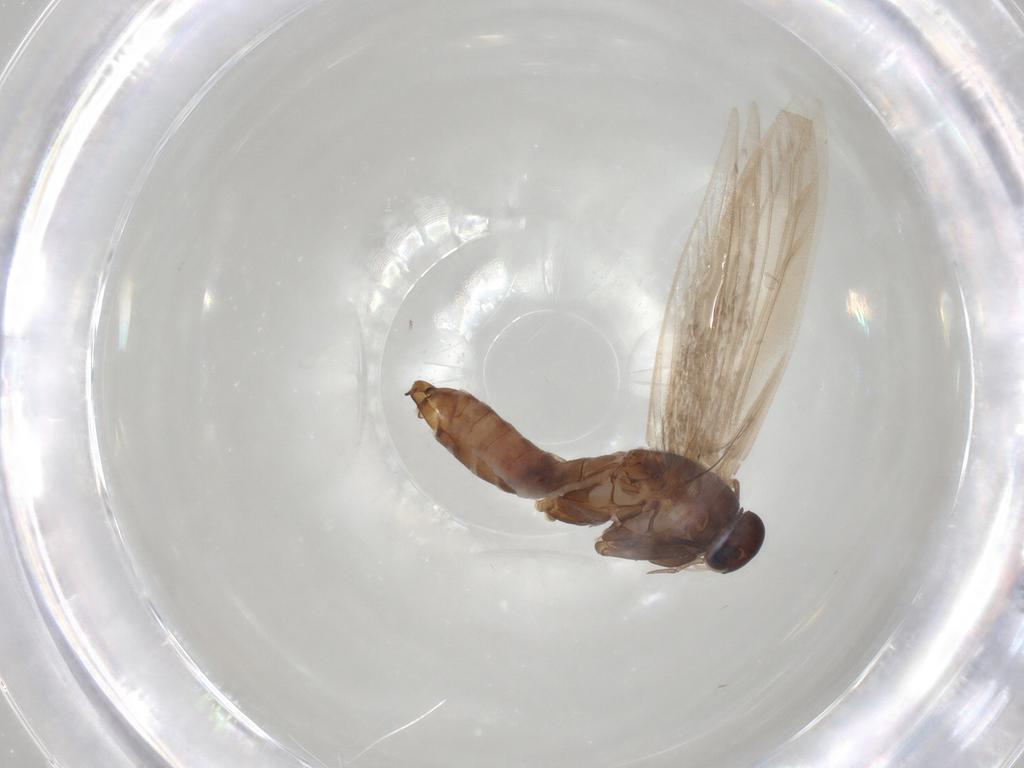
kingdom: Animalia
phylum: Arthropoda
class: Insecta
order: Lepidoptera
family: Scythrididae
